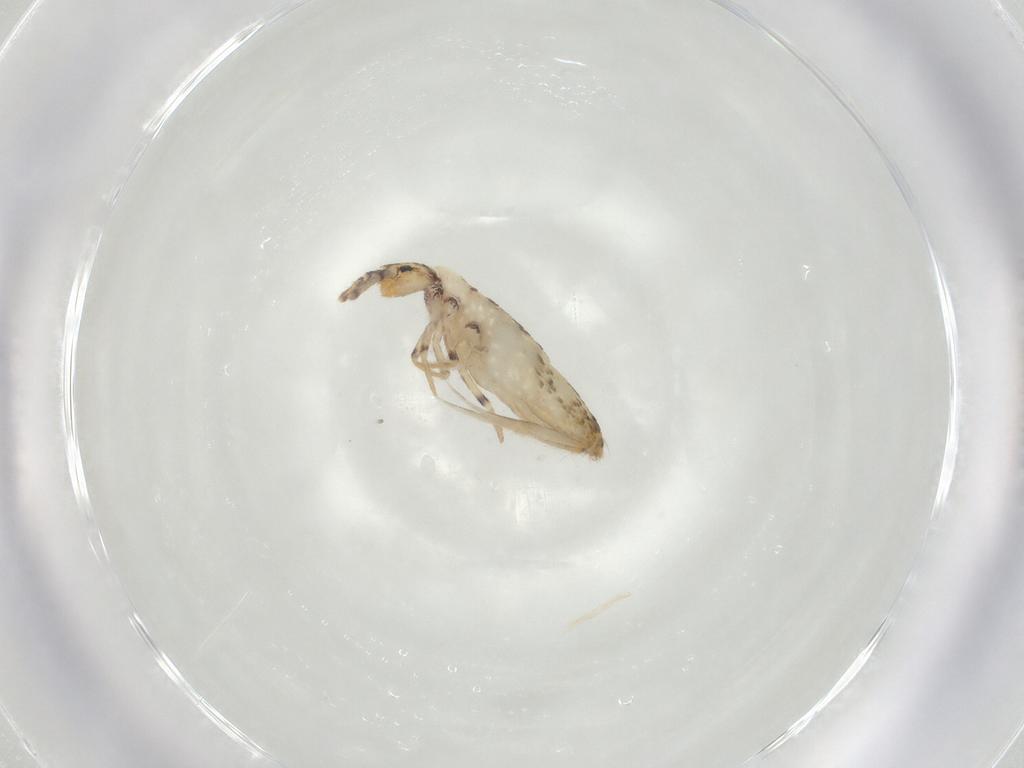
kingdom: Animalia
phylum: Arthropoda
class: Collembola
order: Entomobryomorpha
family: Entomobryidae
